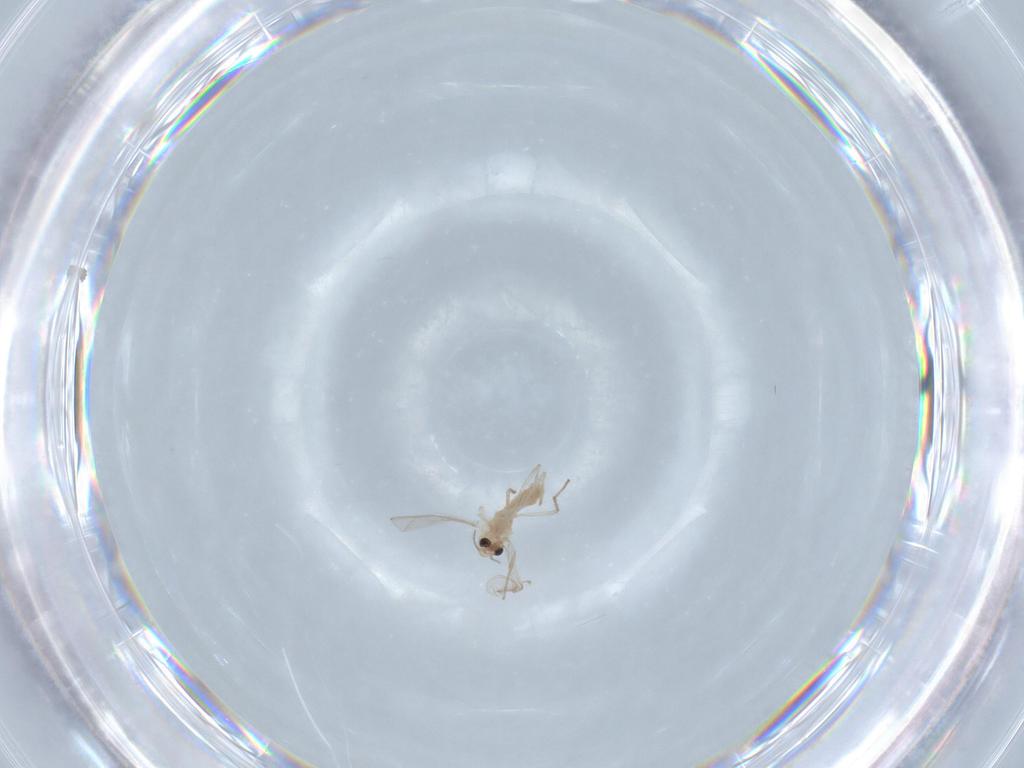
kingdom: Animalia
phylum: Arthropoda
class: Insecta
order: Diptera
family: Chironomidae
